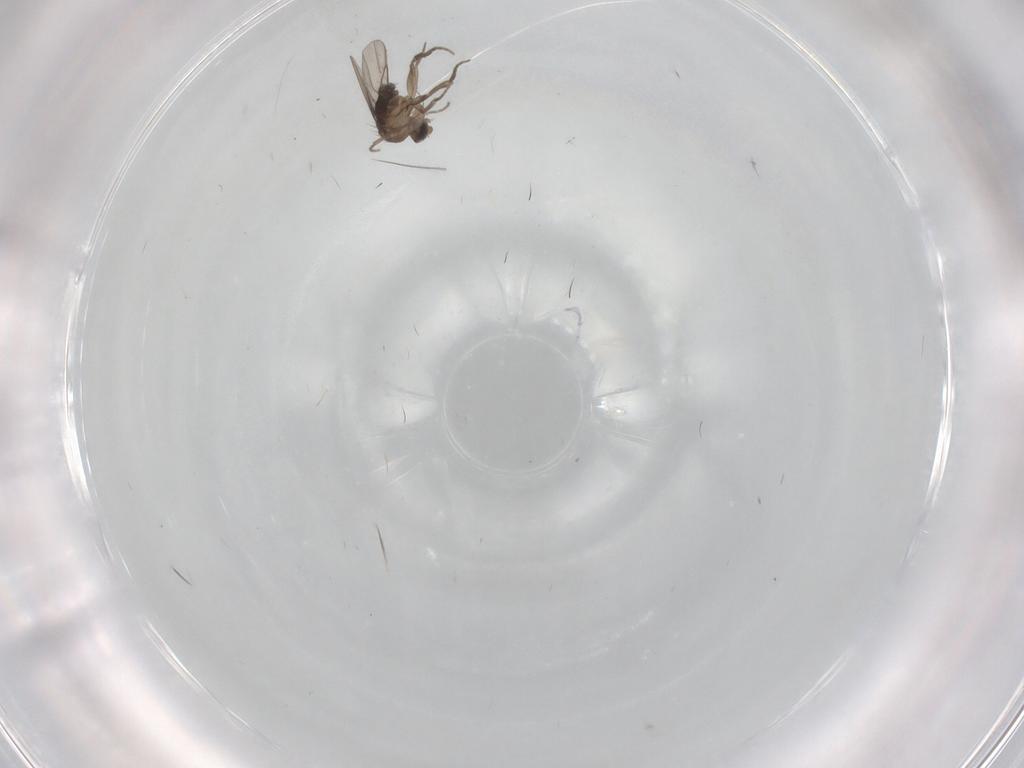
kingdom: Animalia
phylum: Arthropoda
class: Insecta
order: Diptera
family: Phoridae
